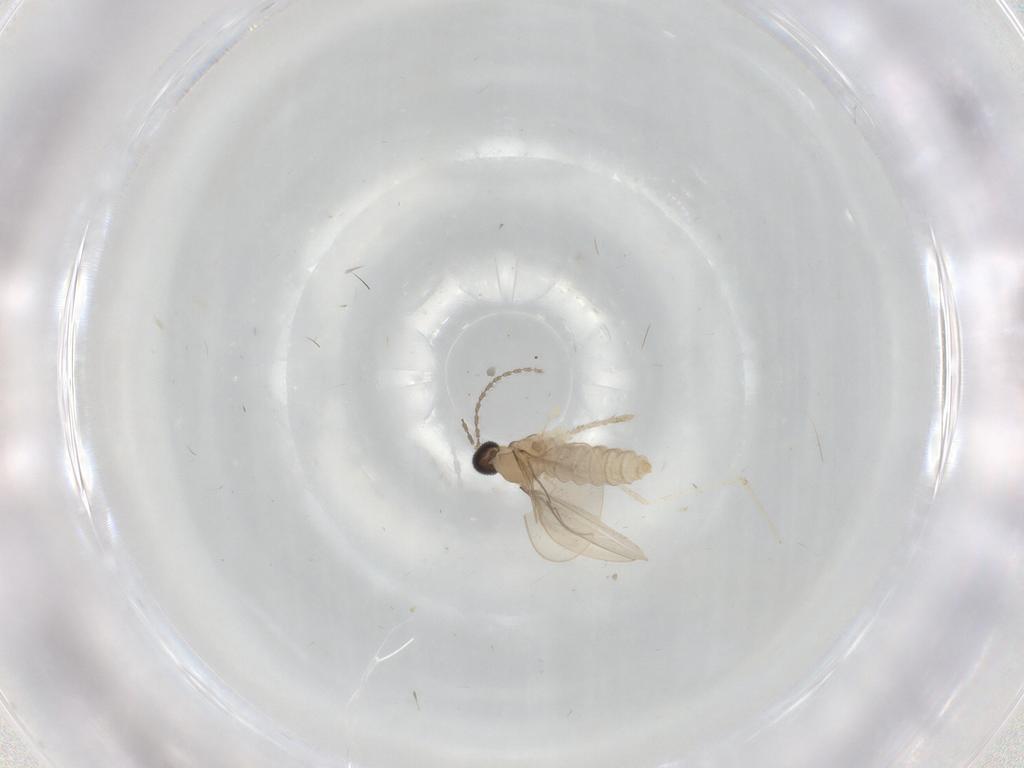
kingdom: Animalia
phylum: Arthropoda
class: Insecta
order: Diptera
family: Cecidomyiidae
